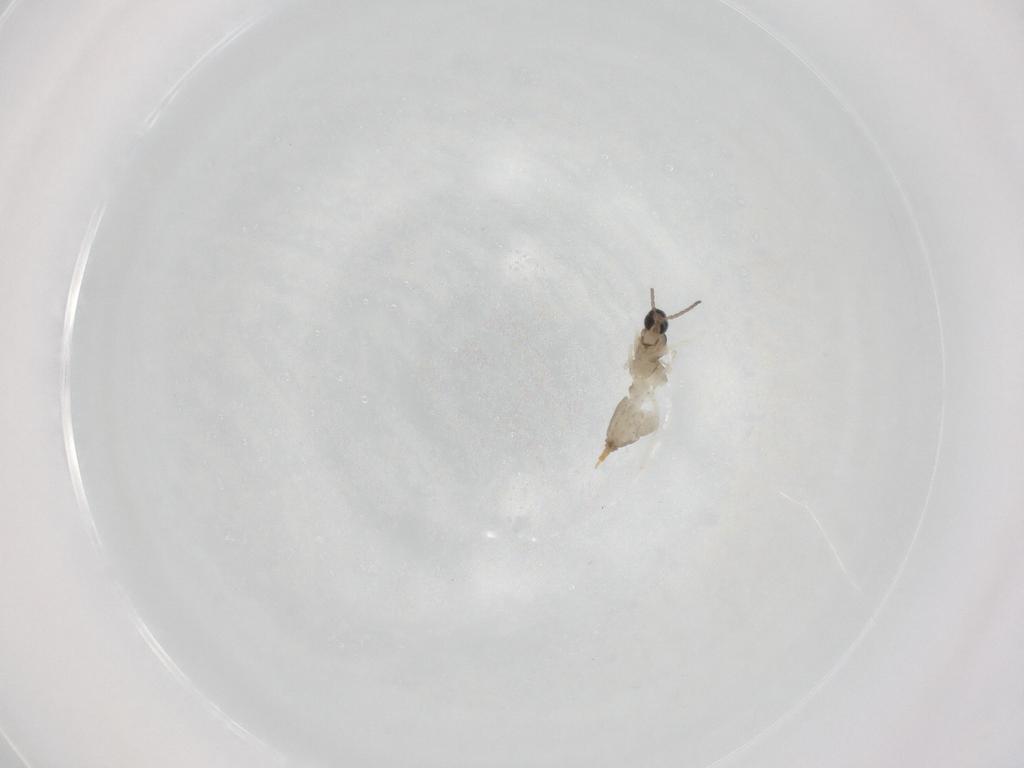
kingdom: Animalia
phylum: Arthropoda
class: Insecta
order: Diptera
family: Cecidomyiidae
